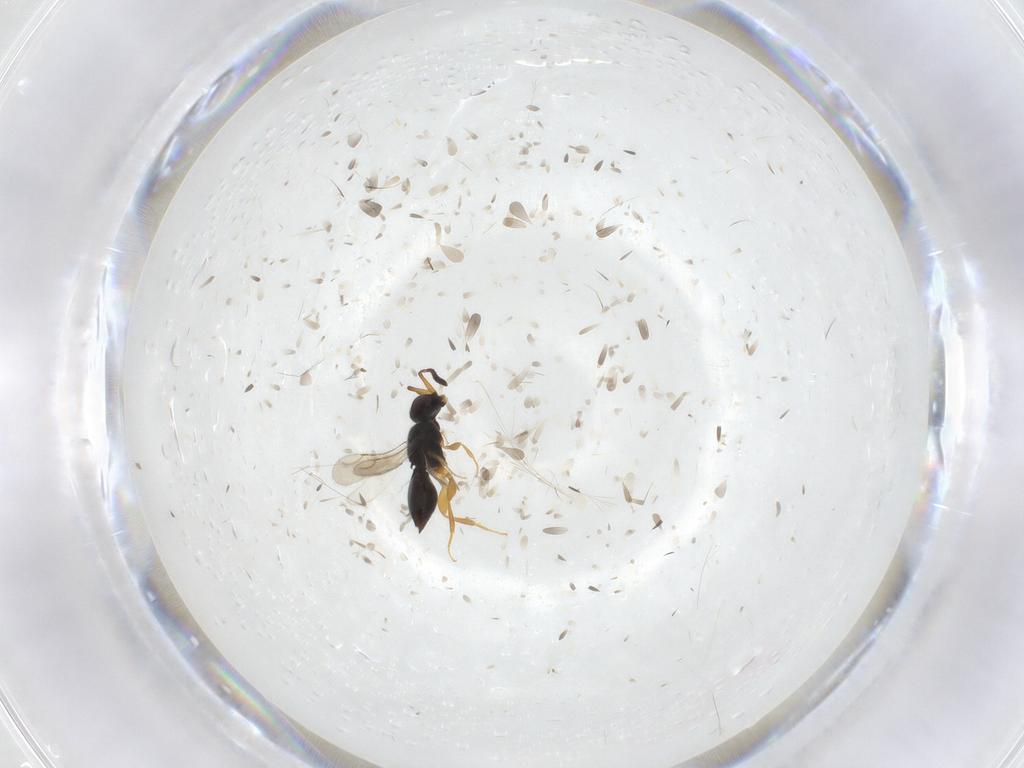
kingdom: Animalia
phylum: Arthropoda
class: Insecta
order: Hymenoptera
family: Ceraphronidae
